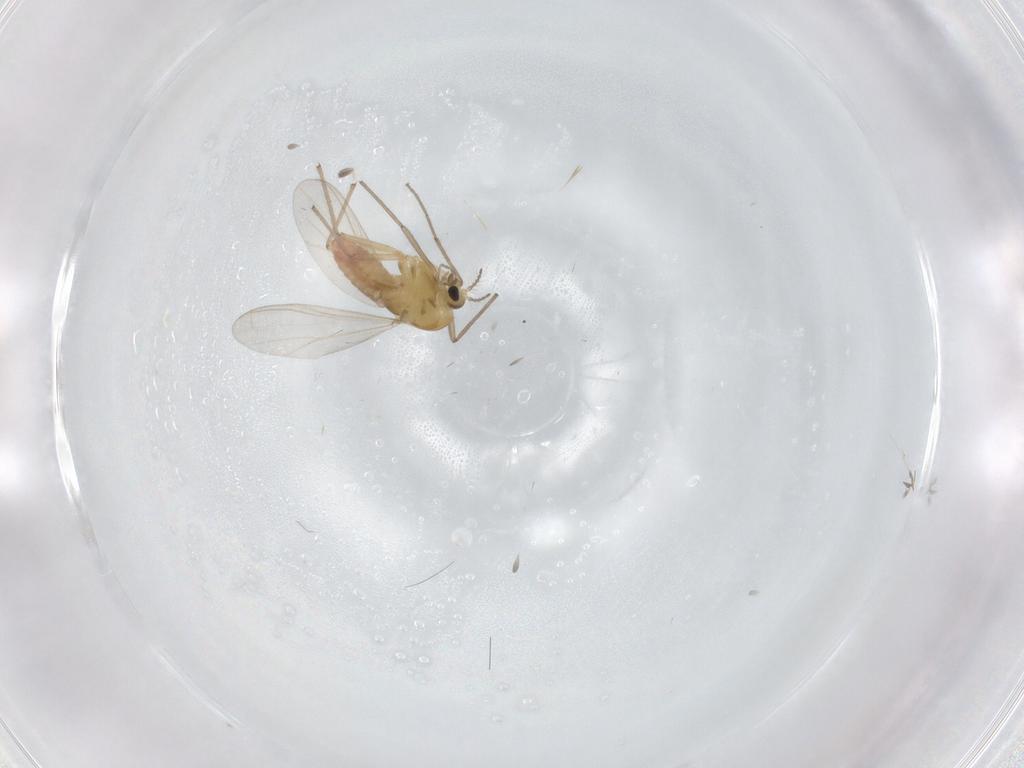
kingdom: Animalia
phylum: Arthropoda
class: Insecta
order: Diptera
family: Chironomidae
